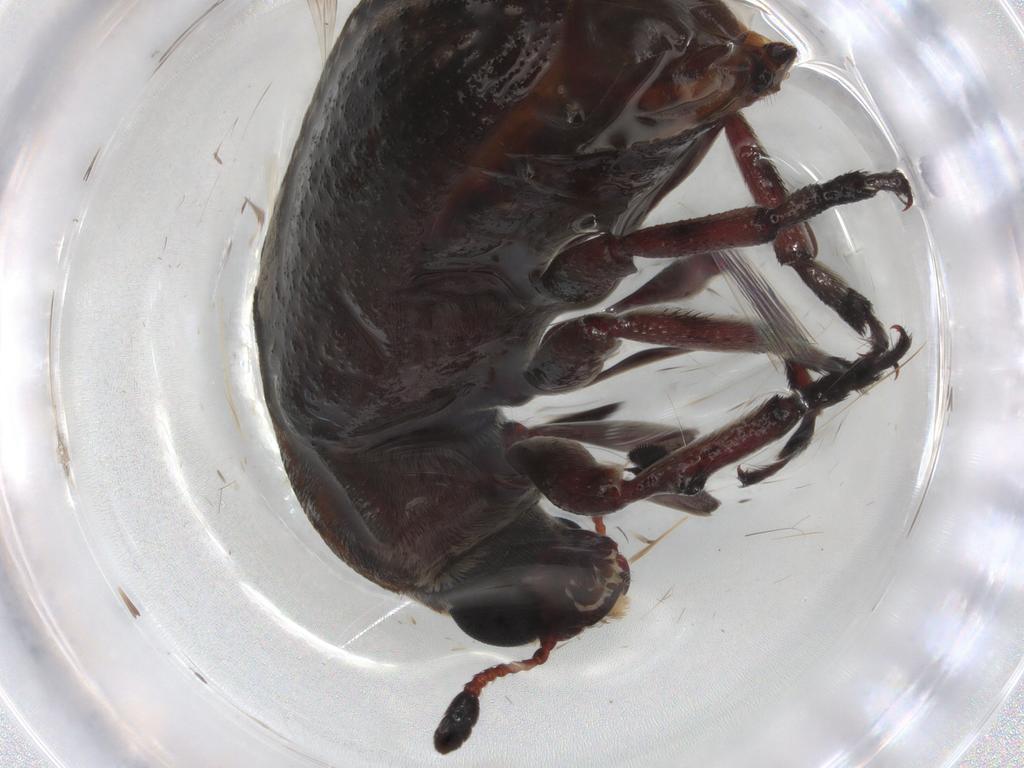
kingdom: Animalia
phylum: Arthropoda
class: Insecta
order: Coleoptera
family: Anthribidae
